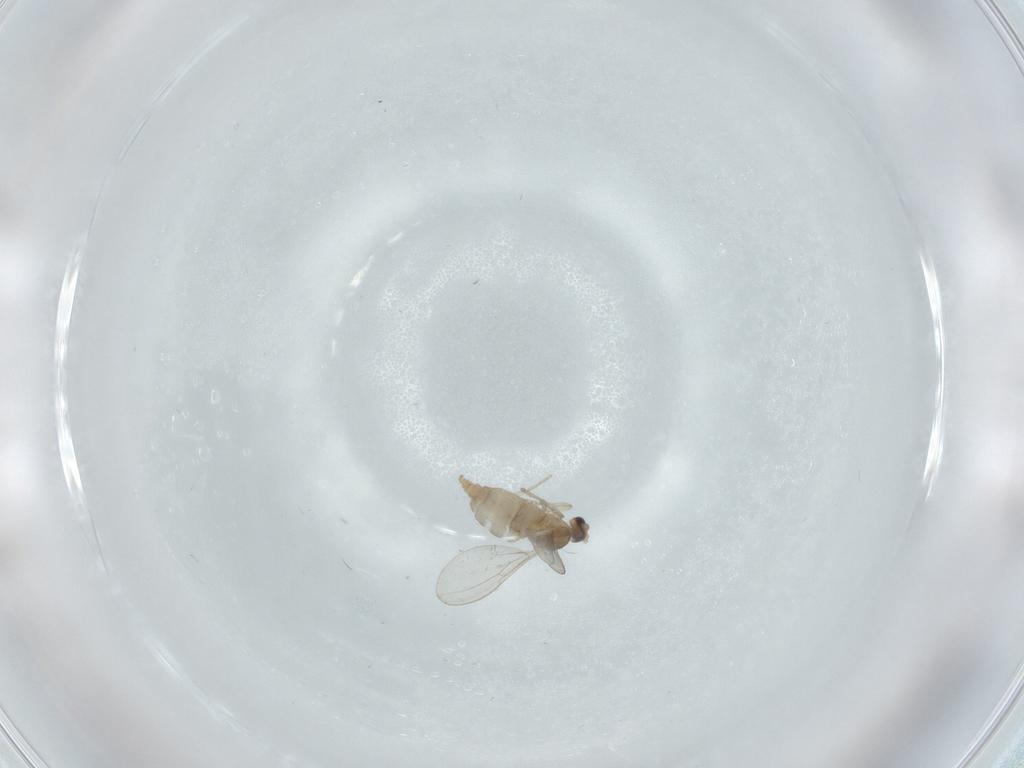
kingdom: Animalia
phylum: Arthropoda
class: Insecta
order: Diptera
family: Cecidomyiidae
